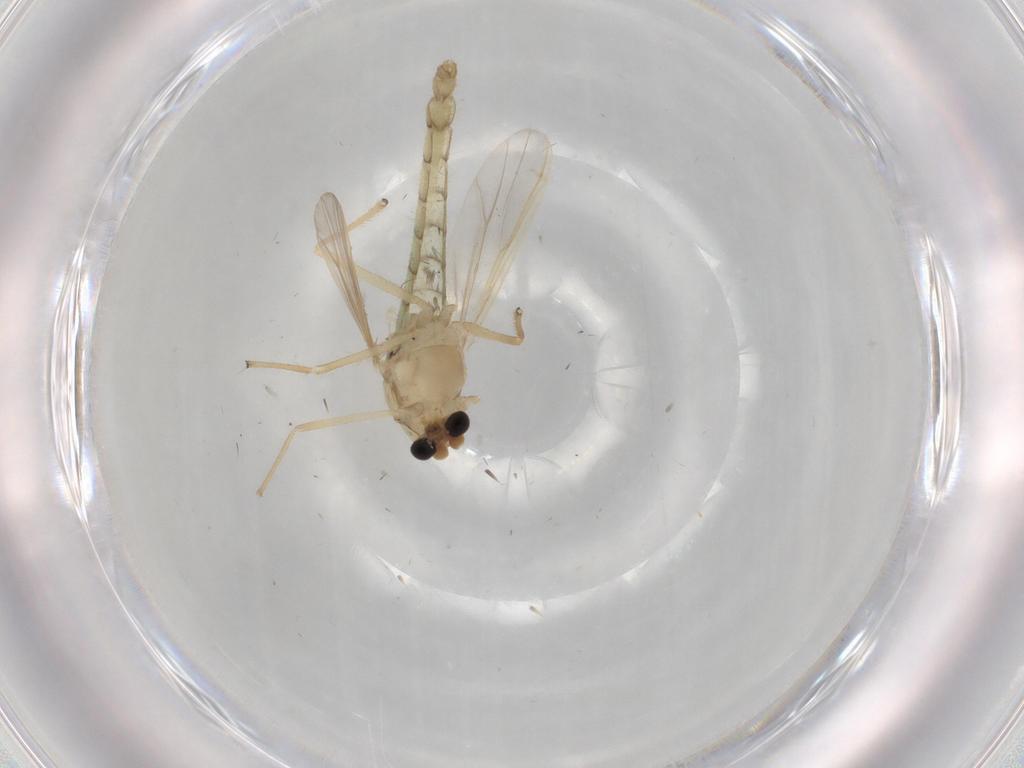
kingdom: Animalia
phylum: Arthropoda
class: Insecta
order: Diptera
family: Chironomidae
